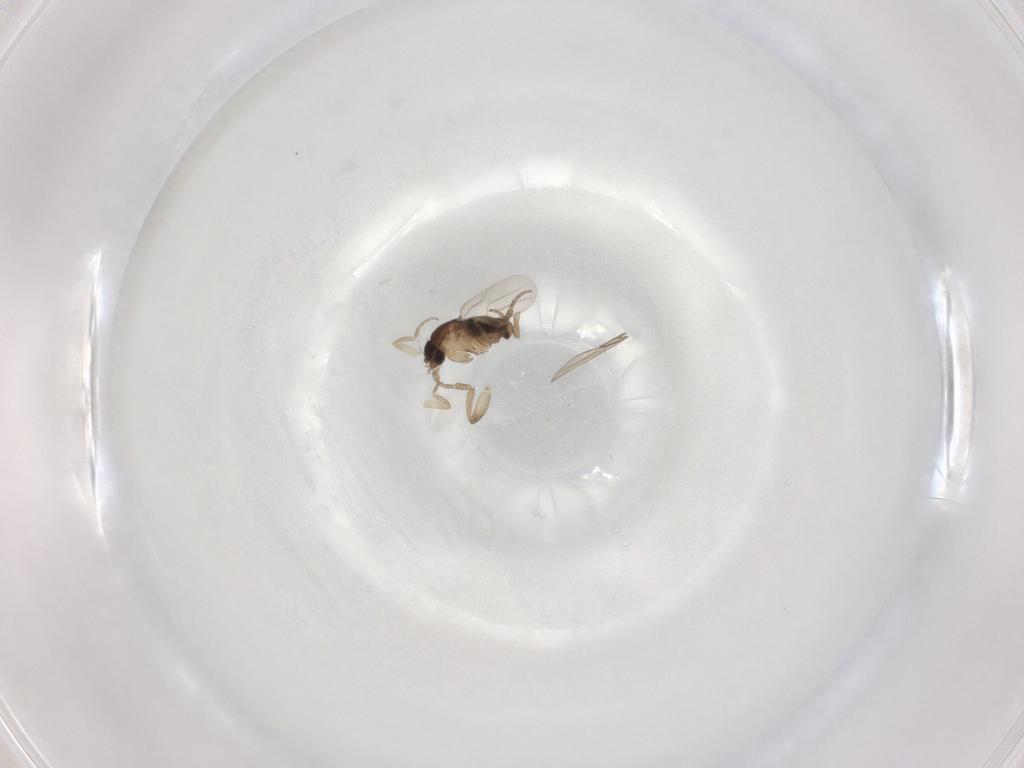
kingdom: Animalia
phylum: Arthropoda
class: Insecta
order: Diptera
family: Phoridae
